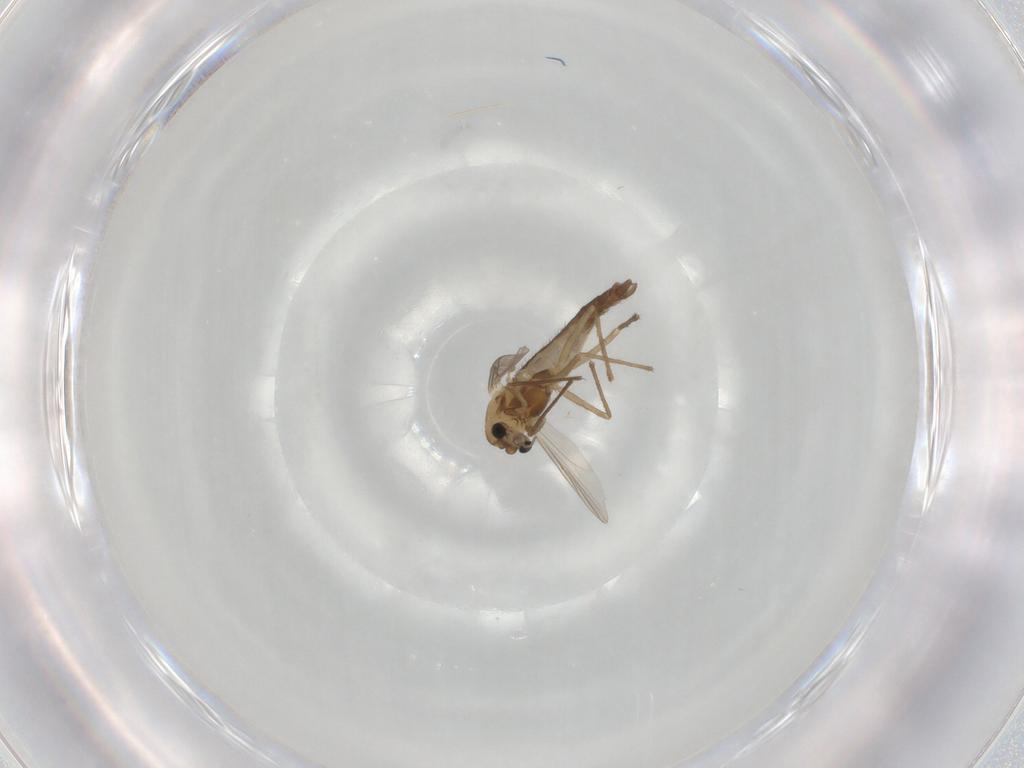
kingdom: Animalia
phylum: Arthropoda
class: Insecta
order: Diptera
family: Chironomidae
